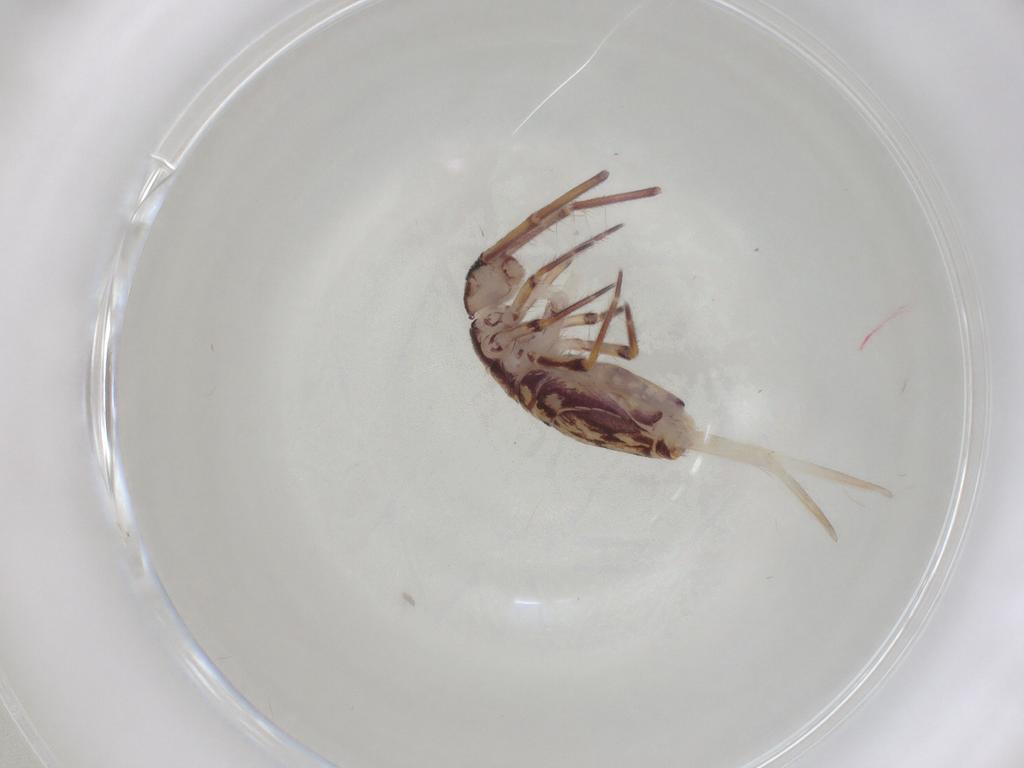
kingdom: Animalia
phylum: Arthropoda
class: Collembola
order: Entomobryomorpha
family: Entomobryidae
